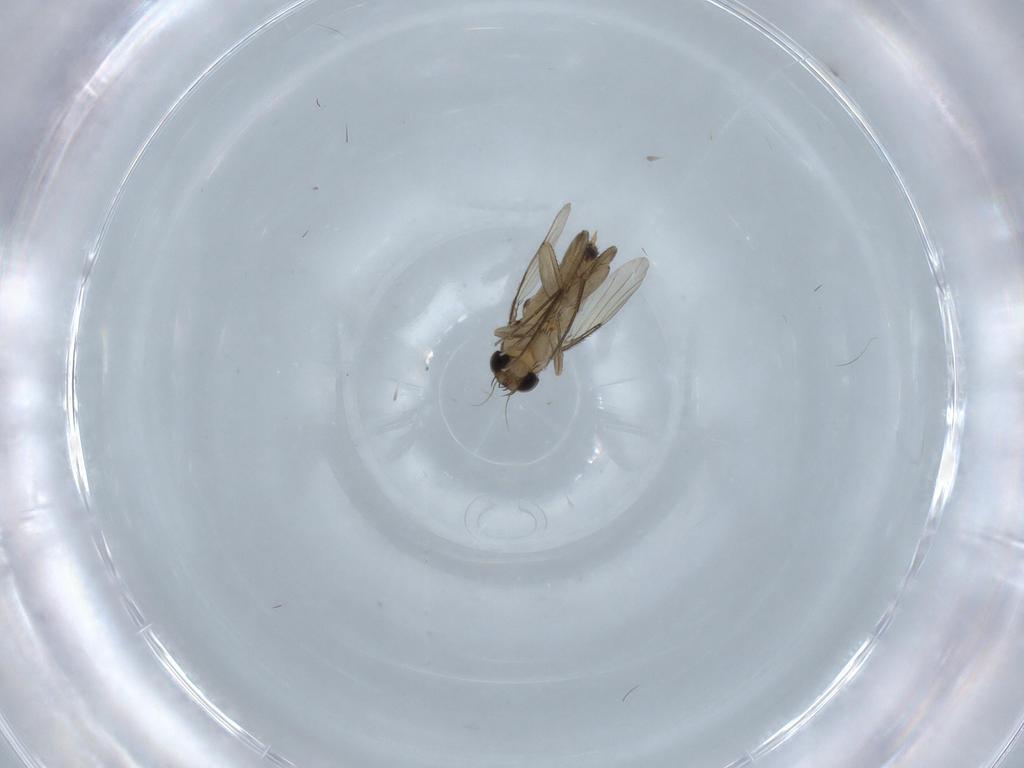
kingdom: Animalia
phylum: Arthropoda
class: Insecta
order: Diptera
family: Phoridae
